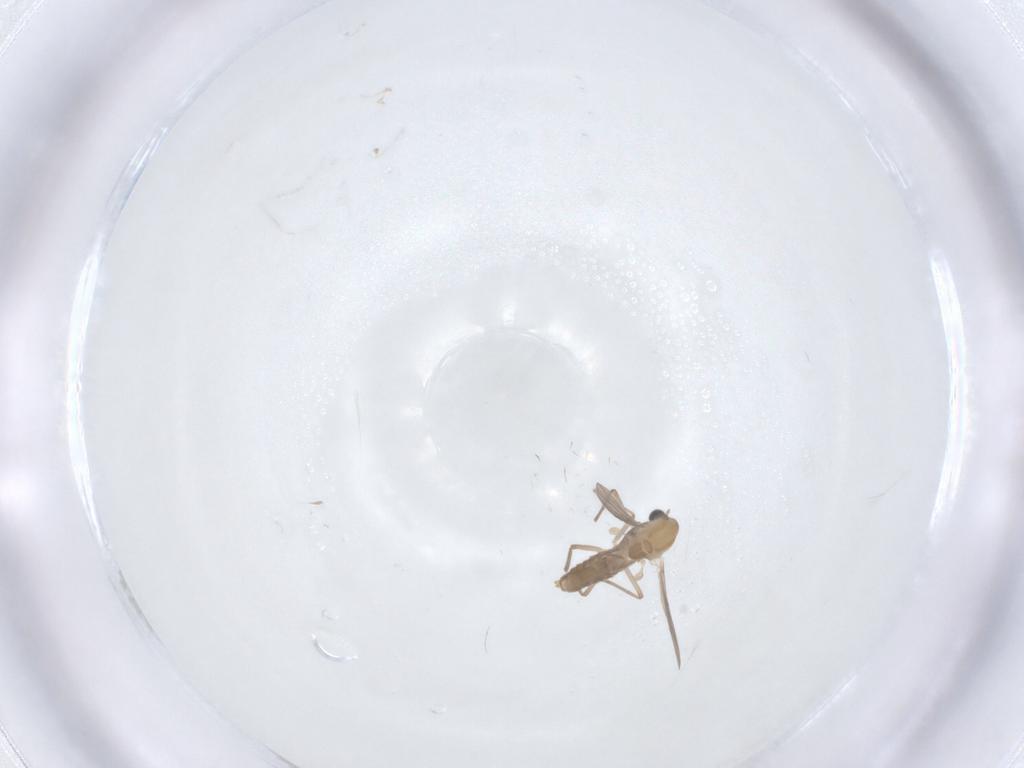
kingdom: Animalia
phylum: Arthropoda
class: Insecta
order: Diptera
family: Chironomidae
